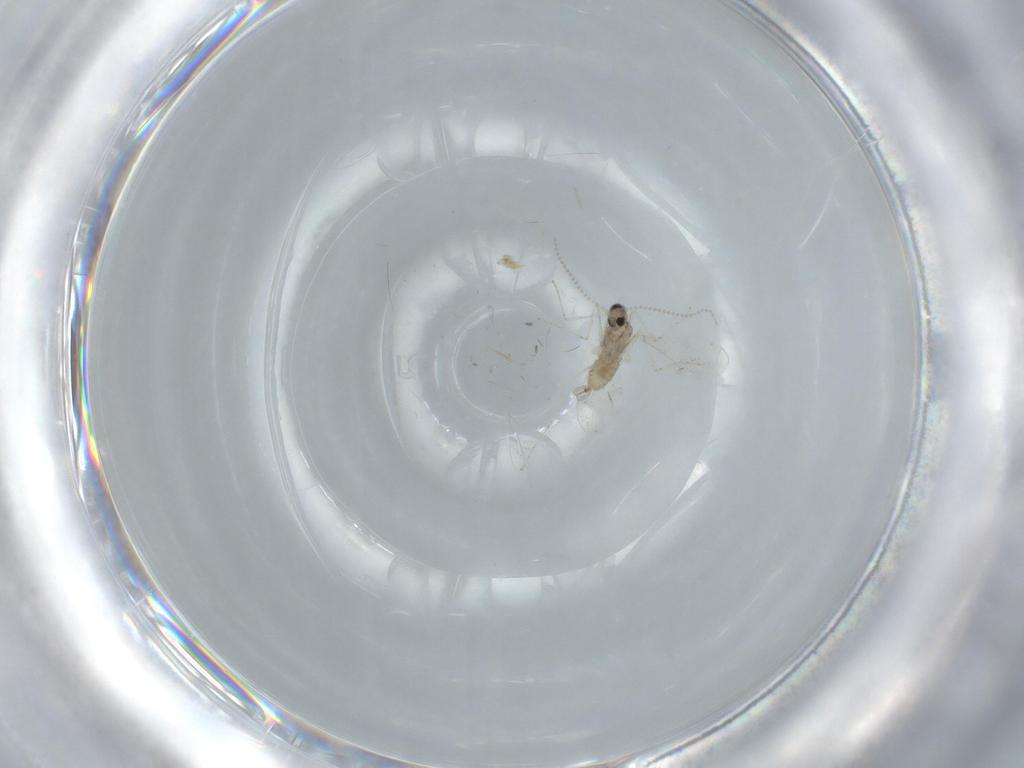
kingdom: Animalia
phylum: Arthropoda
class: Insecta
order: Diptera
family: Cecidomyiidae
